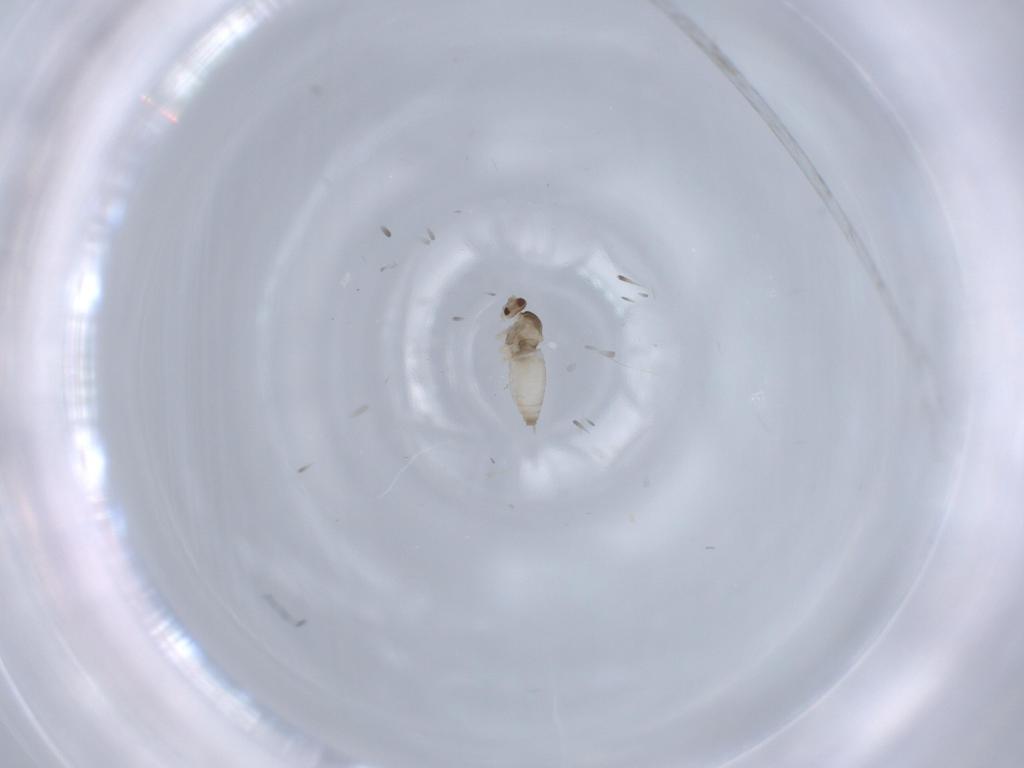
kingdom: Animalia
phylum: Arthropoda
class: Insecta
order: Diptera
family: Cecidomyiidae
